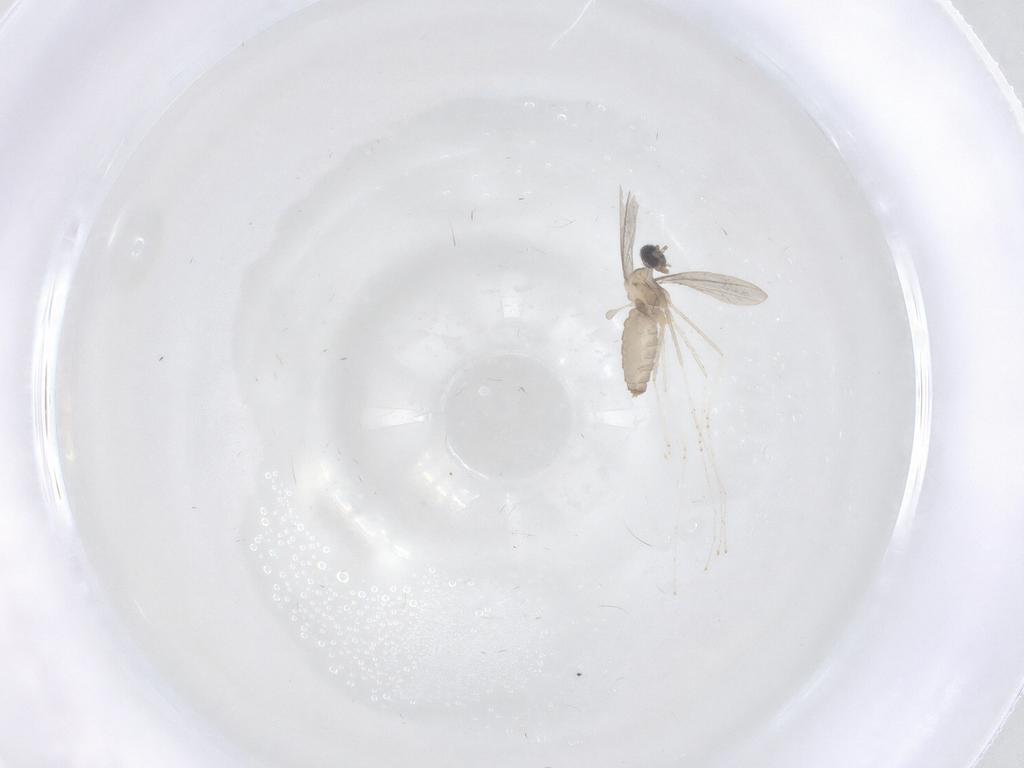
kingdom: Animalia
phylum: Arthropoda
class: Insecta
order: Diptera
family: Cecidomyiidae
